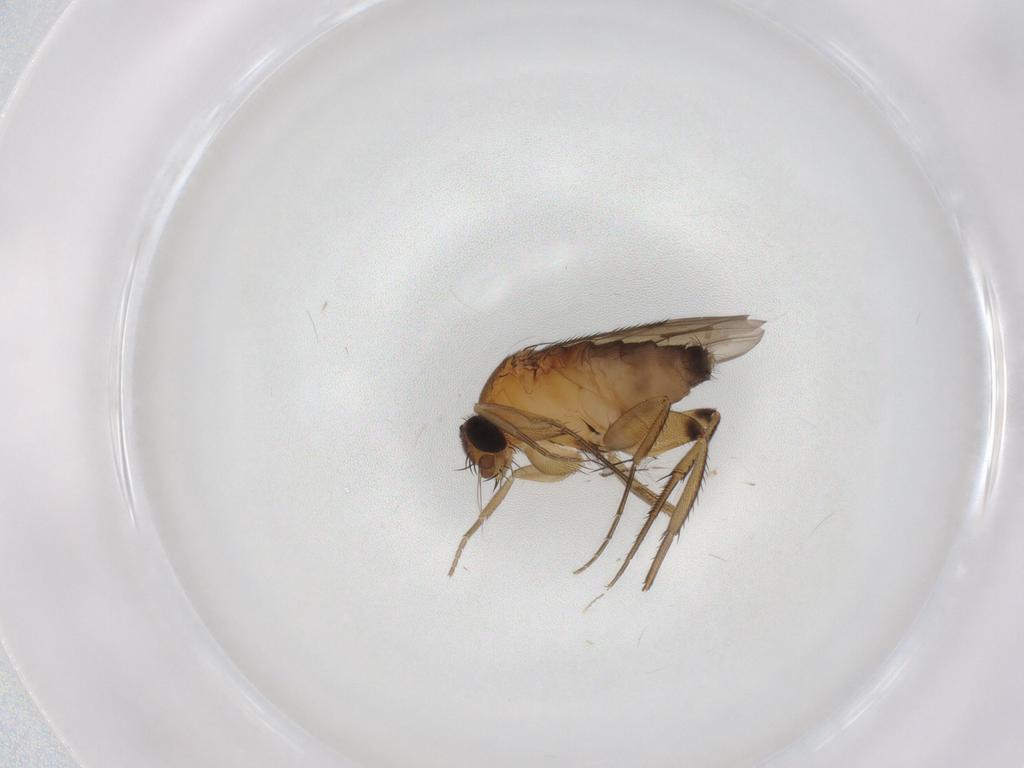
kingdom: Animalia
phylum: Arthropoda
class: Insecta
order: Diptera
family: Phoridae
